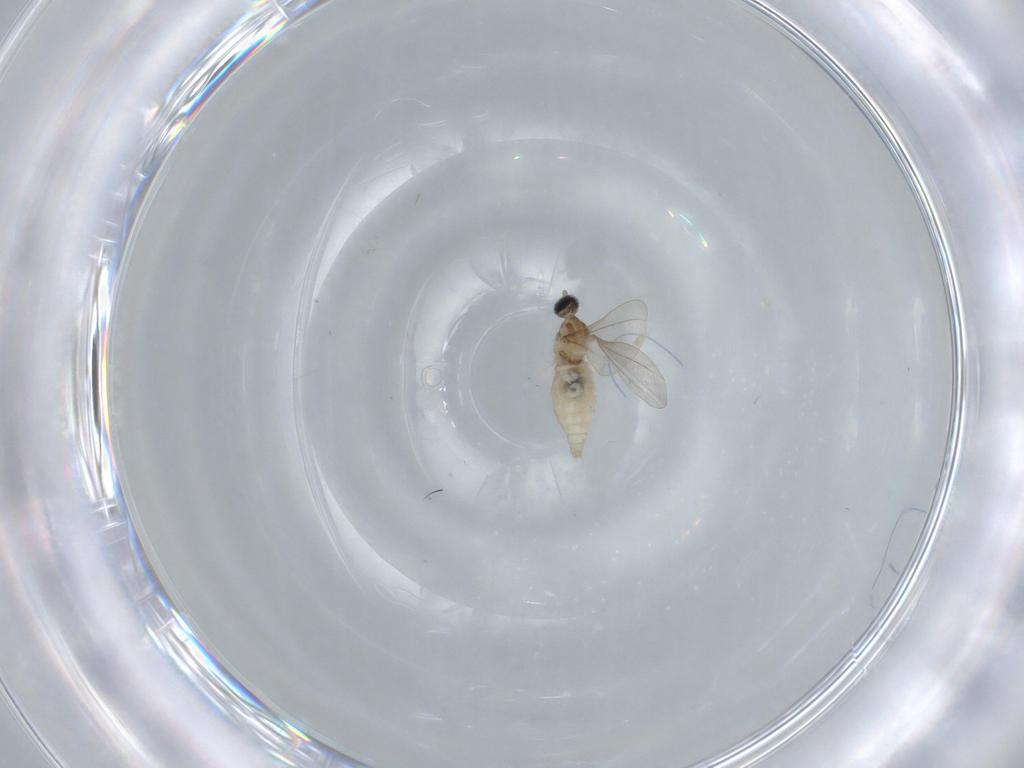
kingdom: Animalia
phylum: Arthropoda
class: Insecta
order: Diptera
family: Cecidomyiidae
